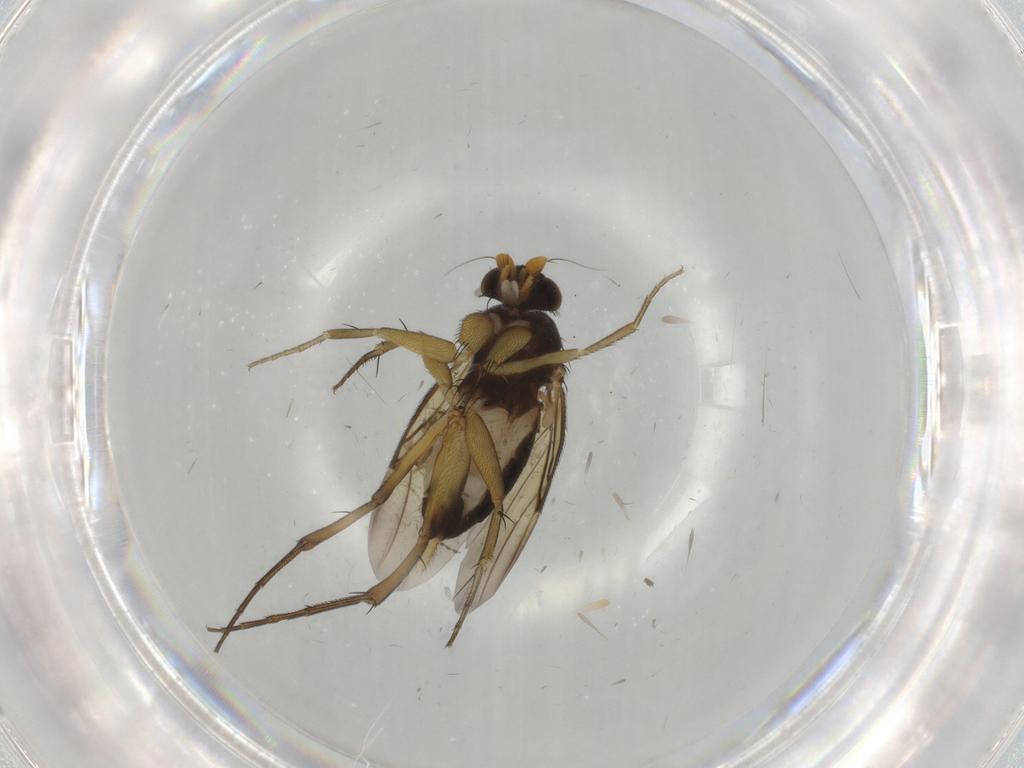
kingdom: Animalia
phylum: Arthropoda
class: Insecta
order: Diptera
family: Phoridae
